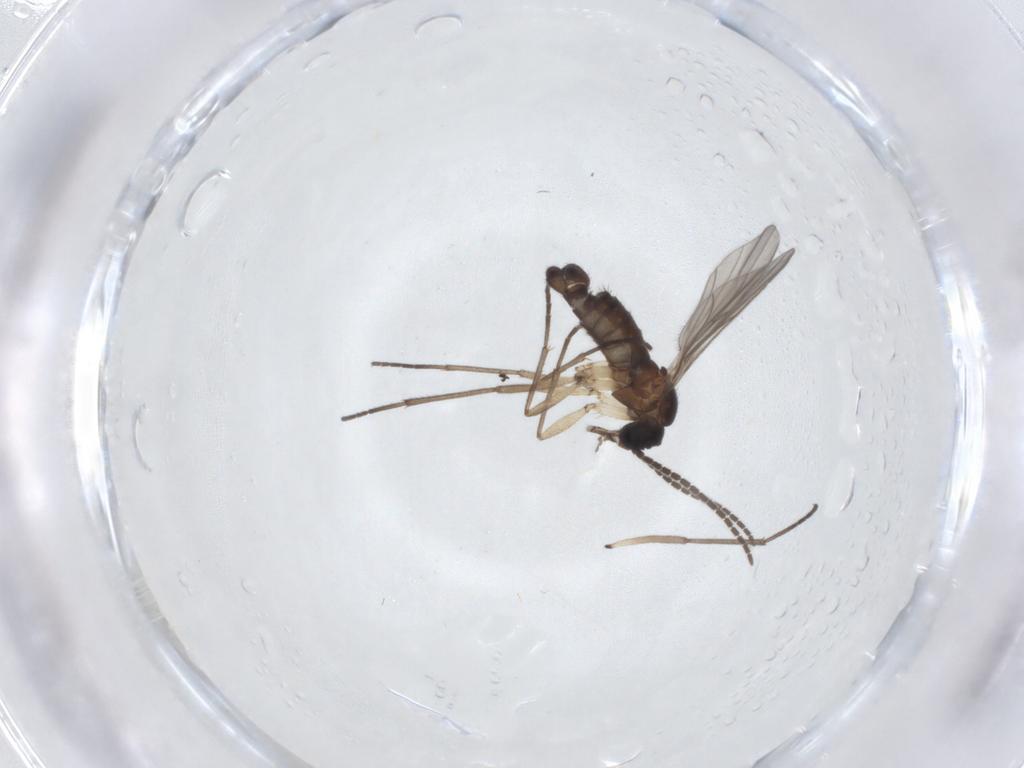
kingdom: Animalia
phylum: Arthropoda
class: Insecta
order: Diptera
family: Sciaridae
